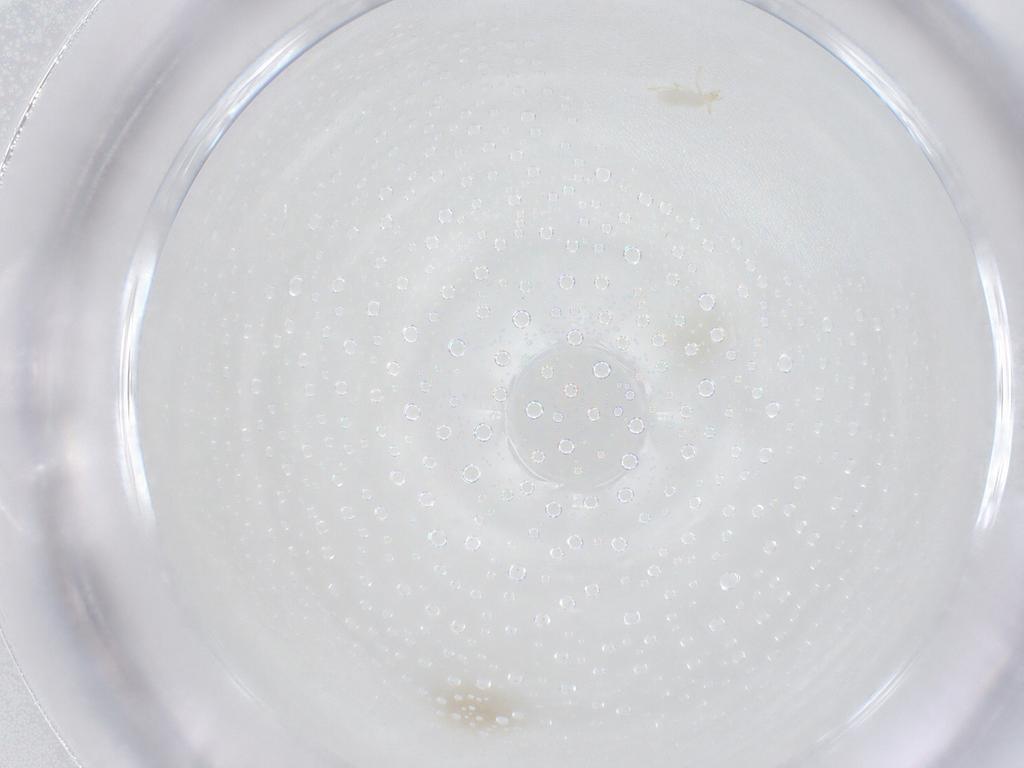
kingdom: Animalia
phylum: Arthropoda
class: Arachnida
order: Trombidiformes
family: Erythraeidae
